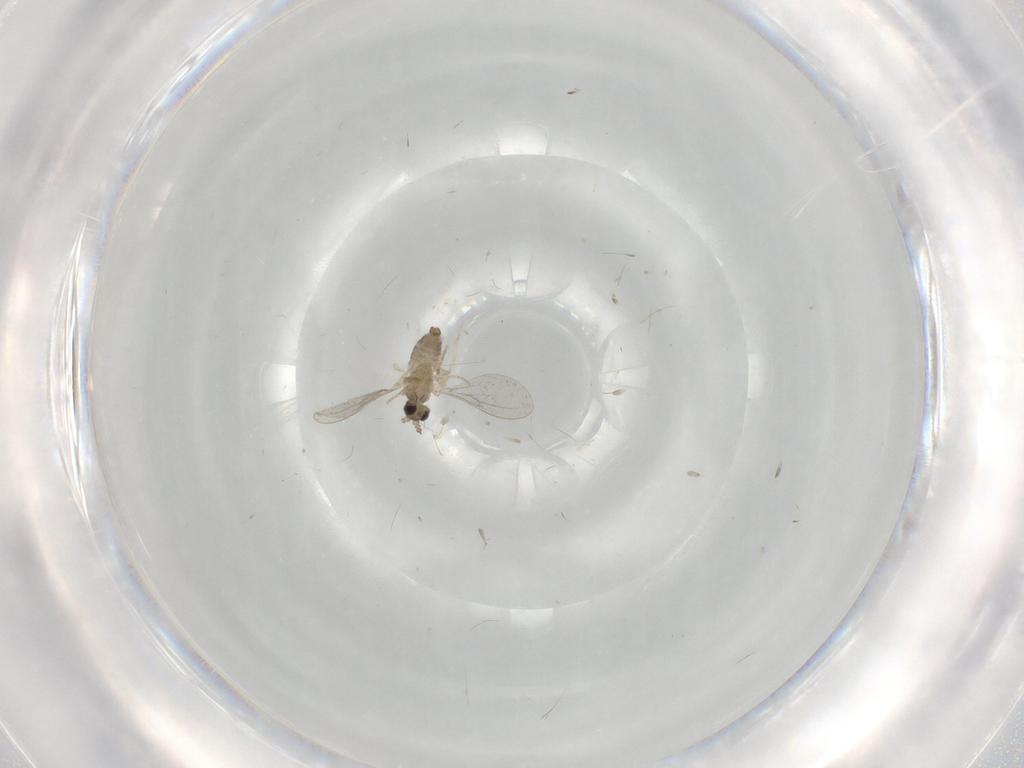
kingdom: Animalia
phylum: Arthropoda
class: Insecta
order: Diptera
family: Cecidomyiidae
